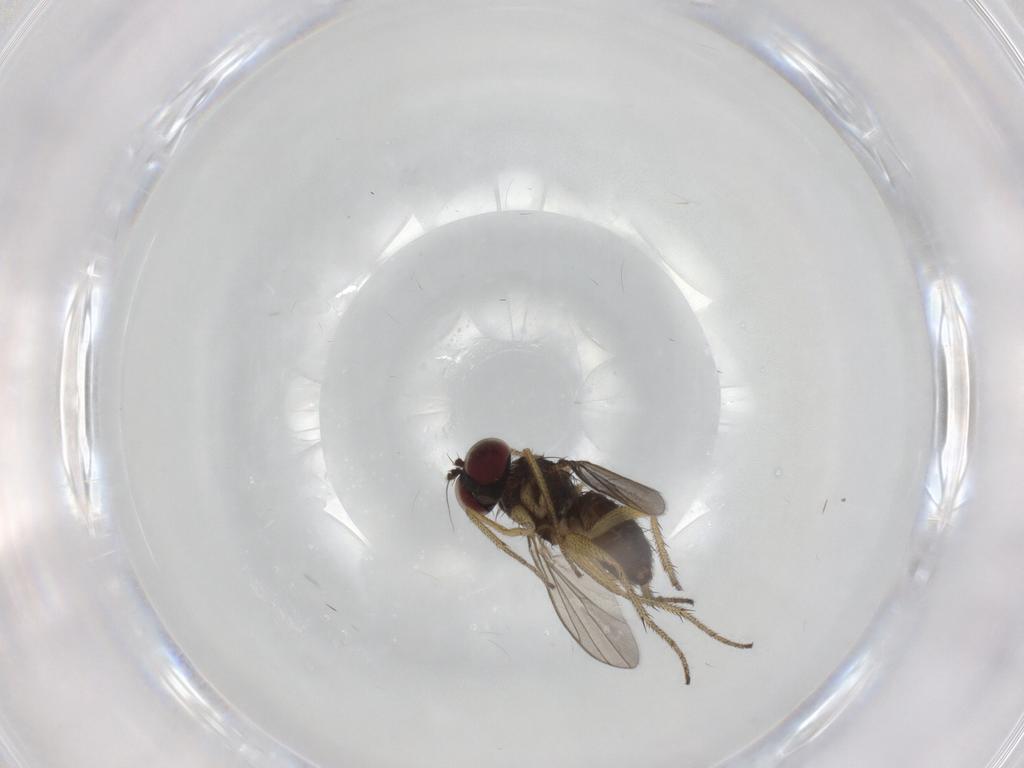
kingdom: Animalia
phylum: Arthropoda
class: Insecta
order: Diptera
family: Ceratopogonidae
